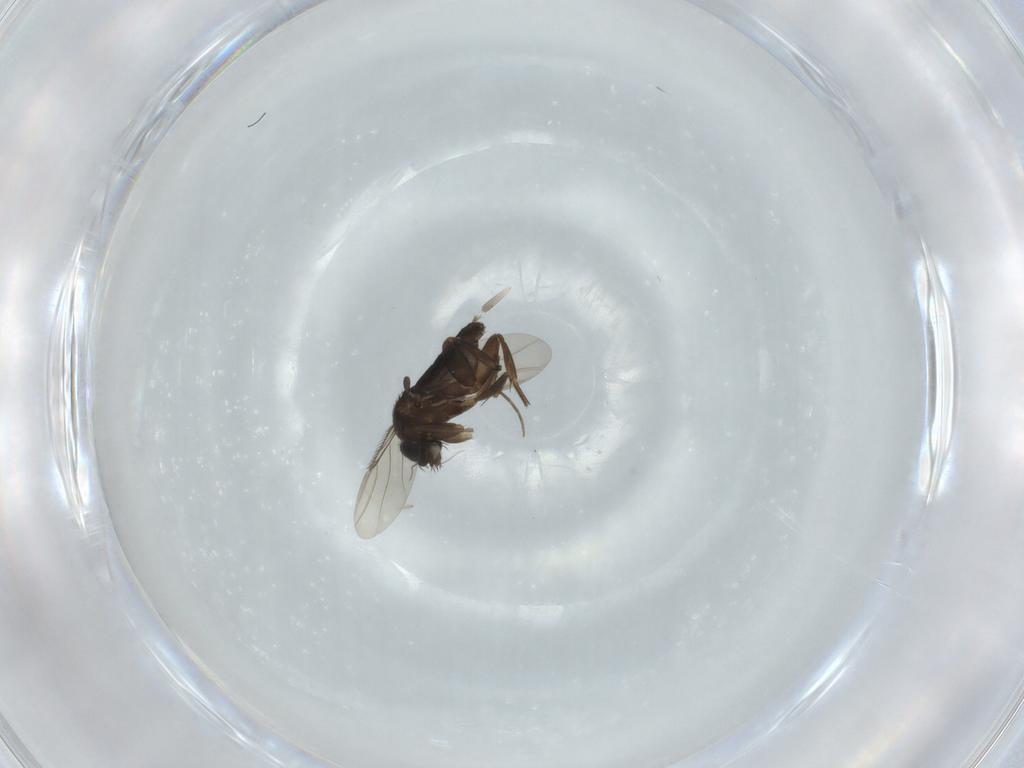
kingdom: Animalia
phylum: Arthropoda
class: Insecta
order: Diptera
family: Phoridae
